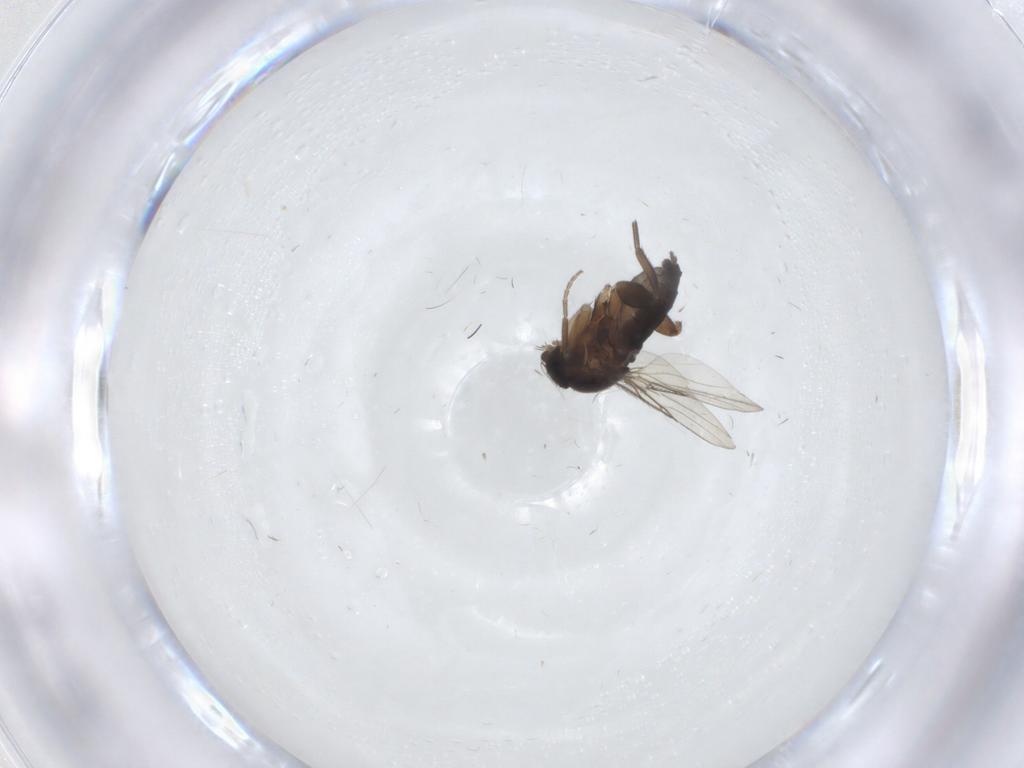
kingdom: Animalia
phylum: Arthropoda
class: Insecta
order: Diptera
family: Phoridae
